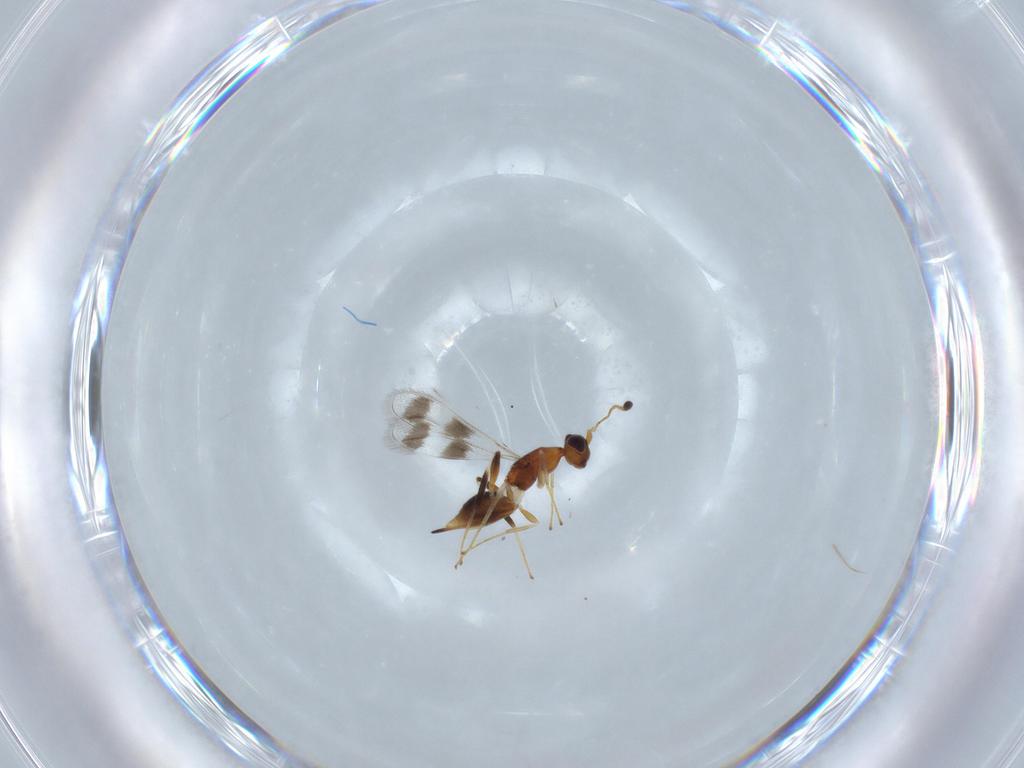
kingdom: Animalia
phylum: Arthropoda
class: Insecta
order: Hymenoptera
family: Mymaridae
